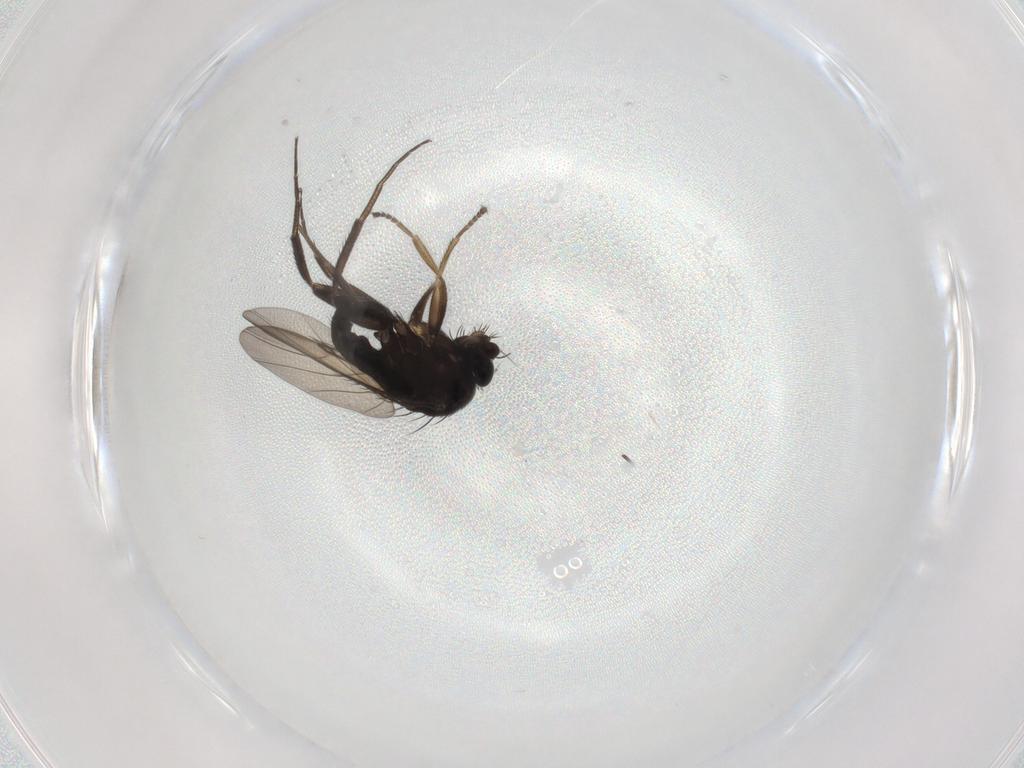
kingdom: Animalia
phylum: Arthropoda
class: Insecta
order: Diptera
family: Phoridae
